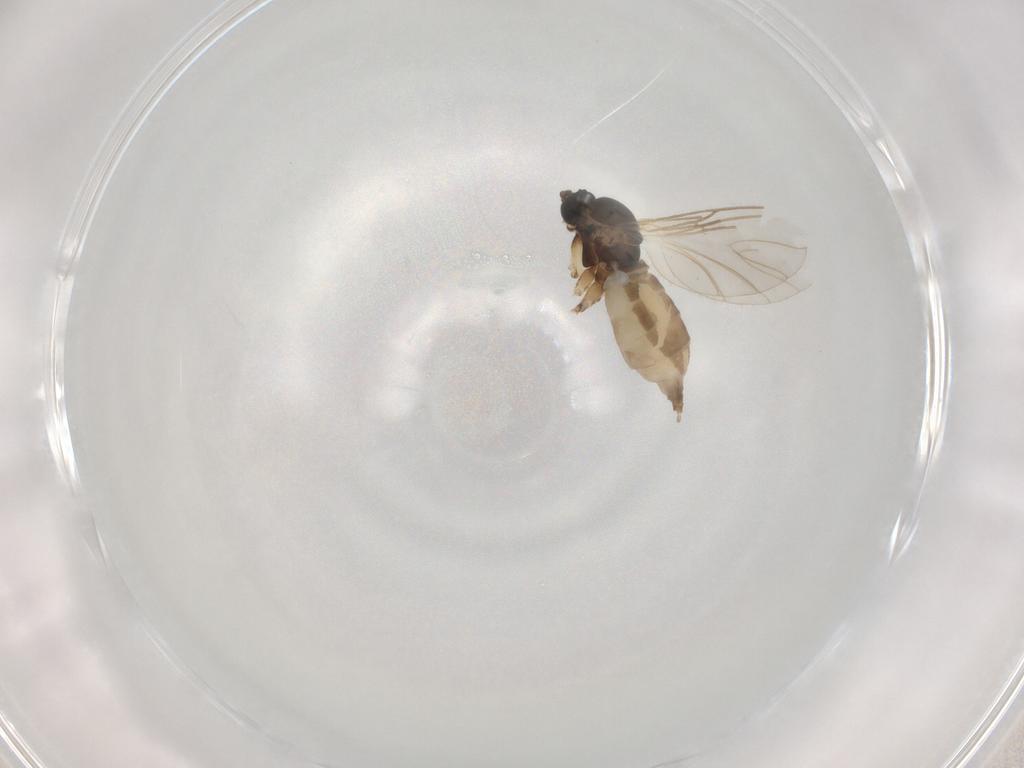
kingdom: Animalia
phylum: Arthropoda
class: Insecta
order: Diptera
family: Sciaridae
